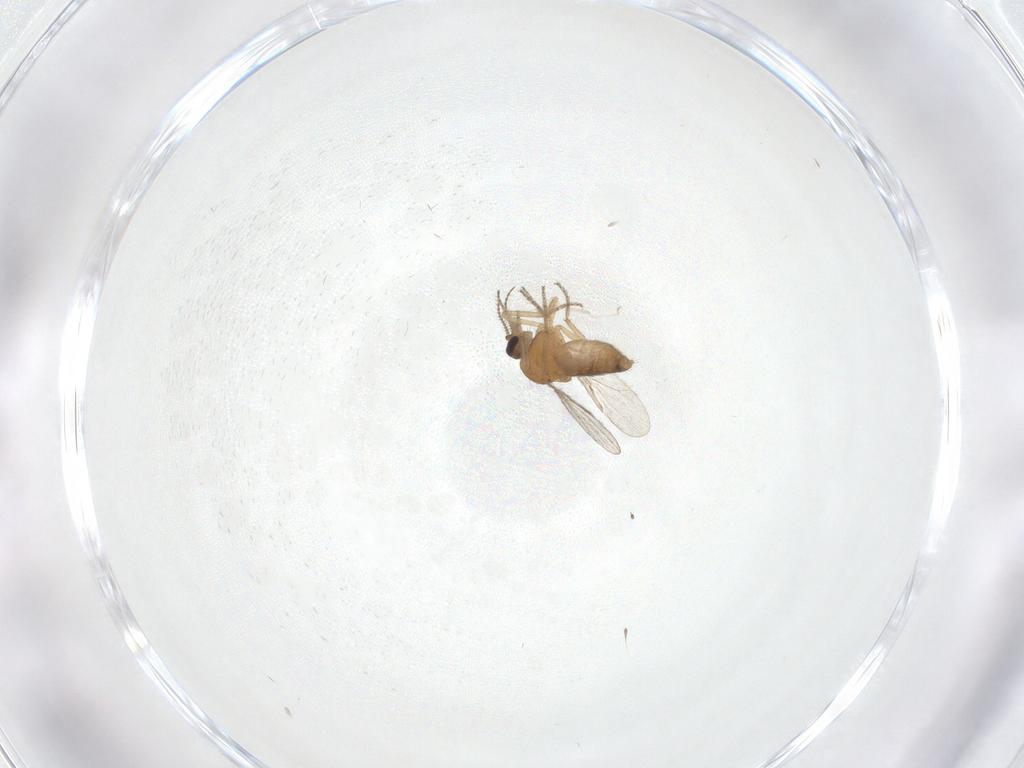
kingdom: Animalia
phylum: Arthropoda
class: Insecta
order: Diptera
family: Ceratopogonidae
